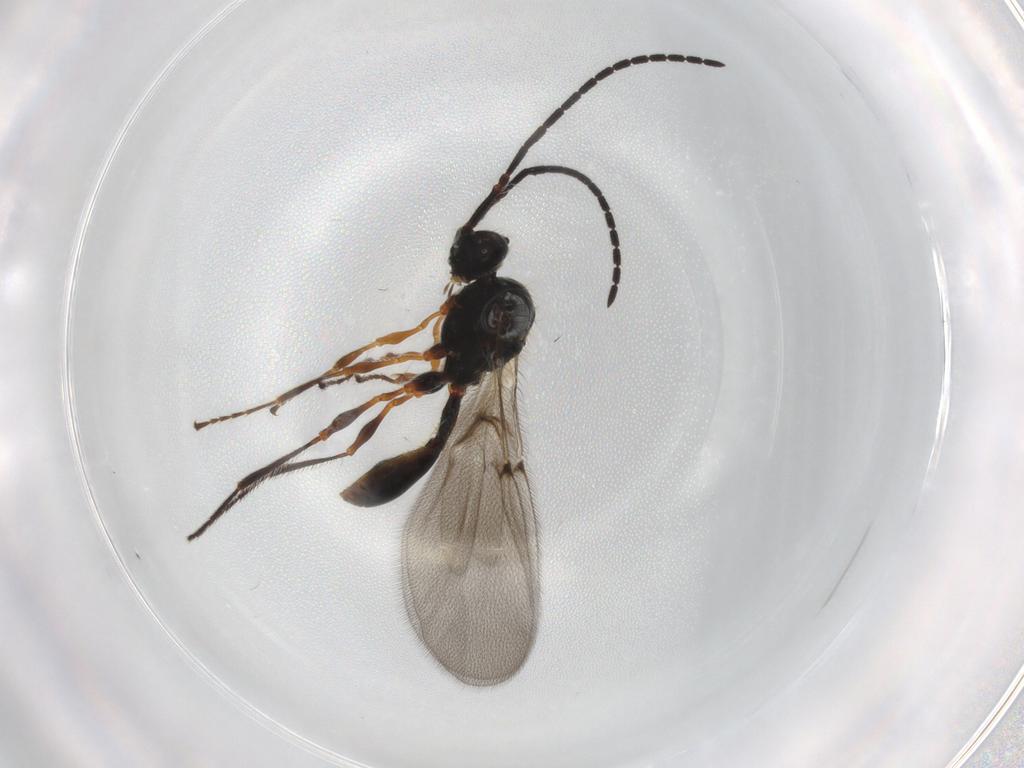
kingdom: Animalia
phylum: Arthropoda
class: Insecta
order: Hymenoptera
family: Diapriidae
